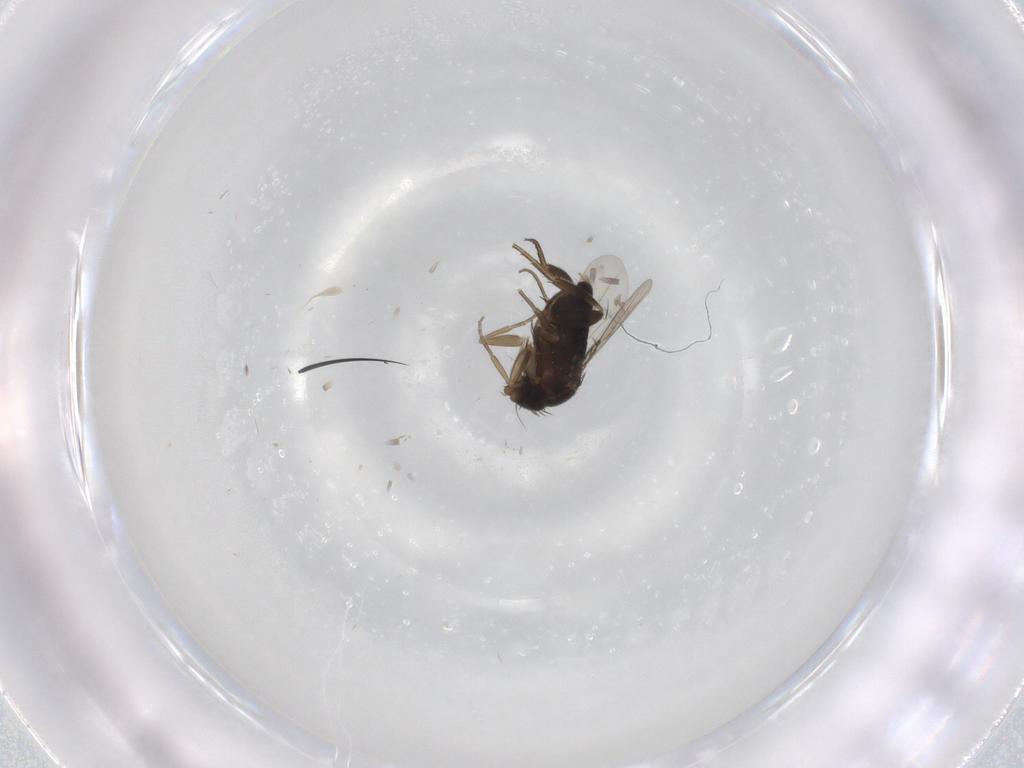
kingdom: Animalia
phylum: Arthropoda
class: Insecta
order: Diptera
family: Phoridae
